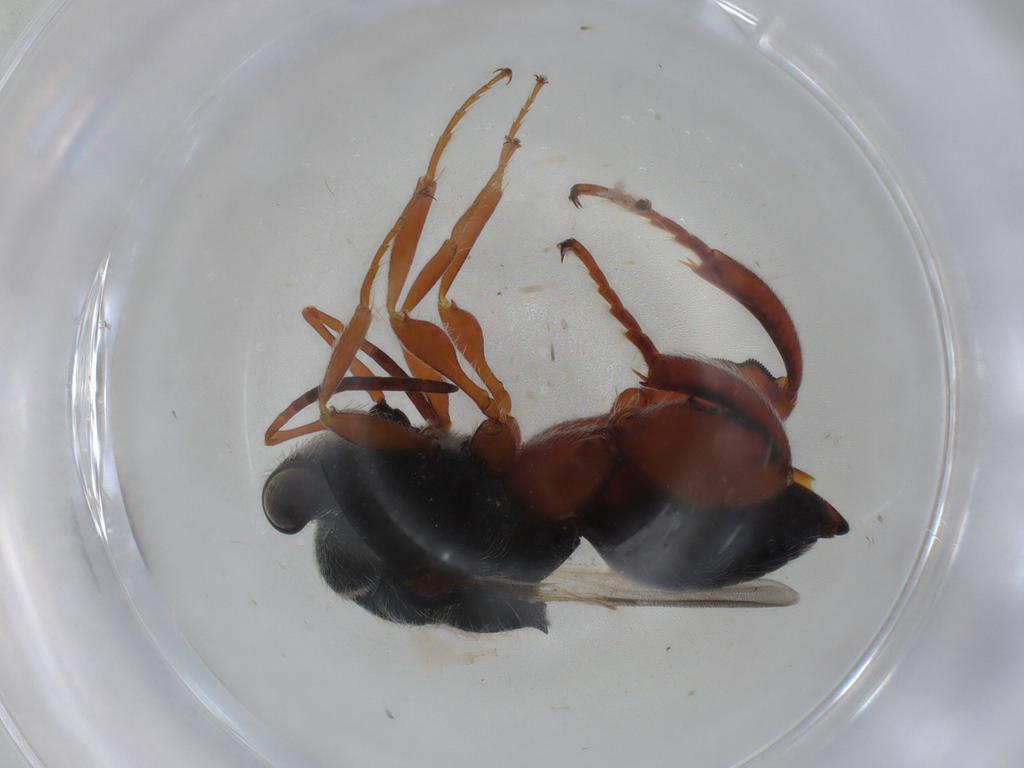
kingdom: Animalia
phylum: Arthropoda
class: Insecta
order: Hymenoptera
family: Chalcididae
